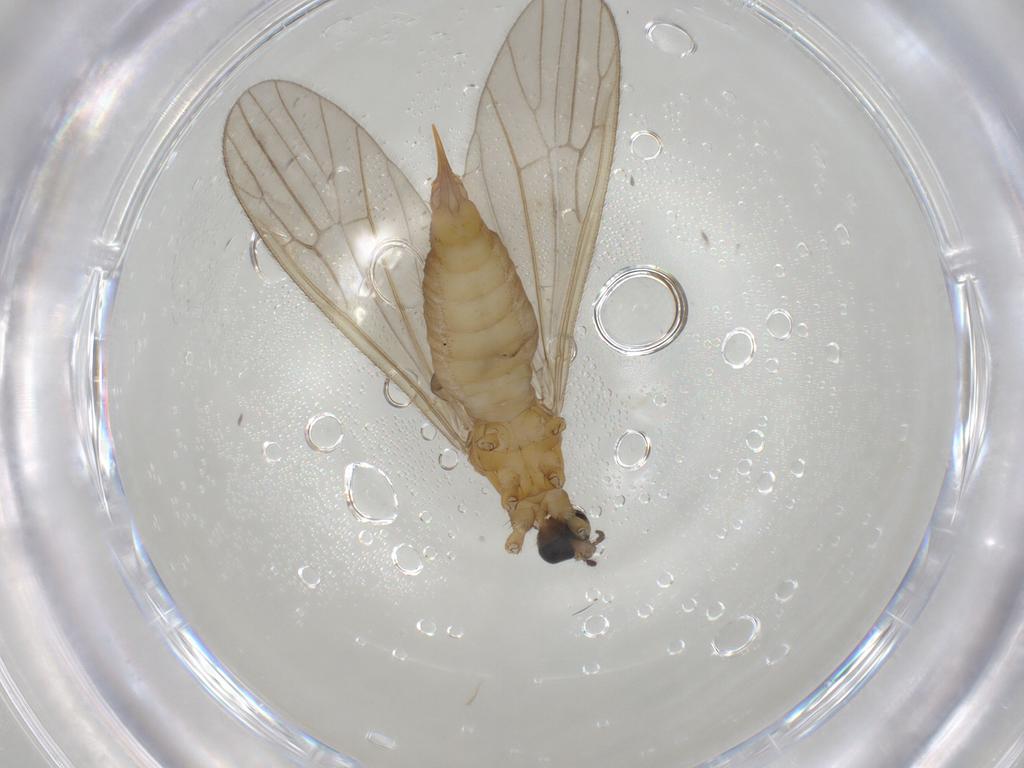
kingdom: Animalia
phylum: Arthropoda
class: Insecta
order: Diptera
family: Limoniidae
